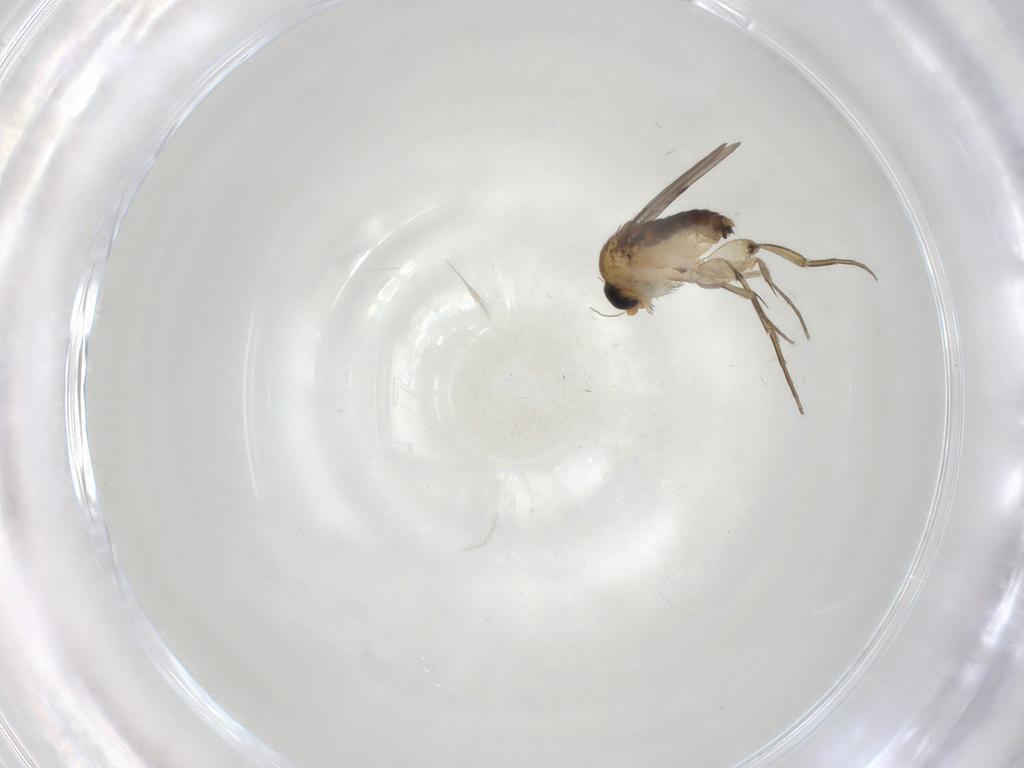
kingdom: Animalia
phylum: Arthropoda
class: Insecta
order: Diptera
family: Phoridae
